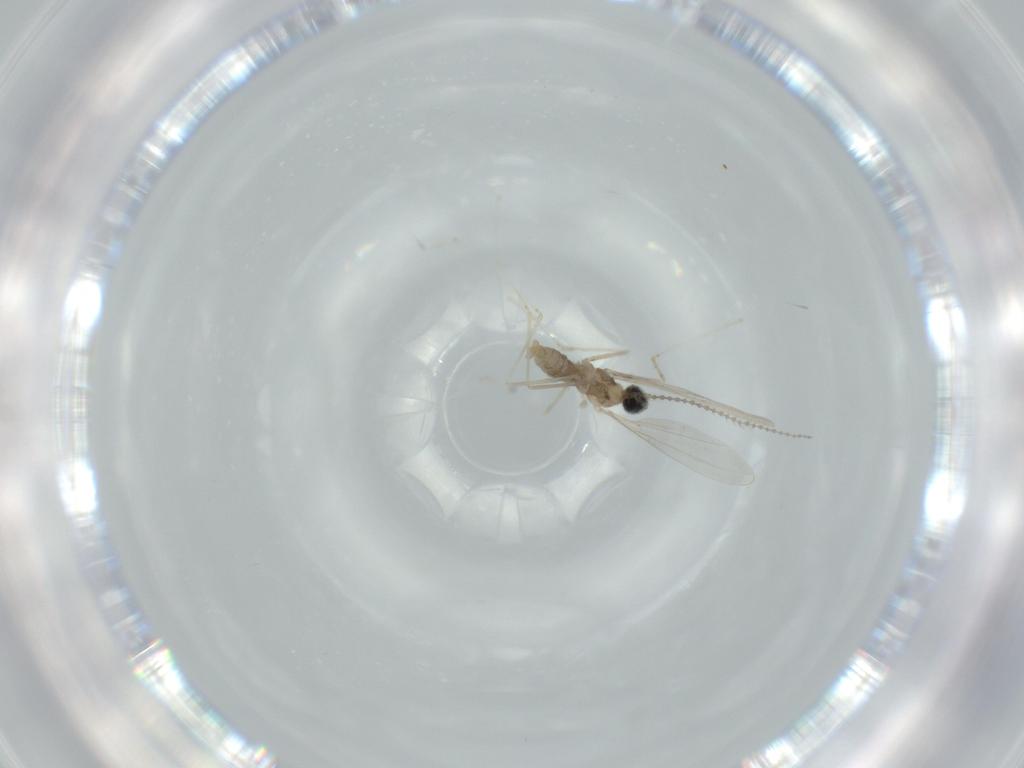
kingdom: Animalia
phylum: Arthropoda
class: Insecta
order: Diptera
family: Cecidomyiidae
